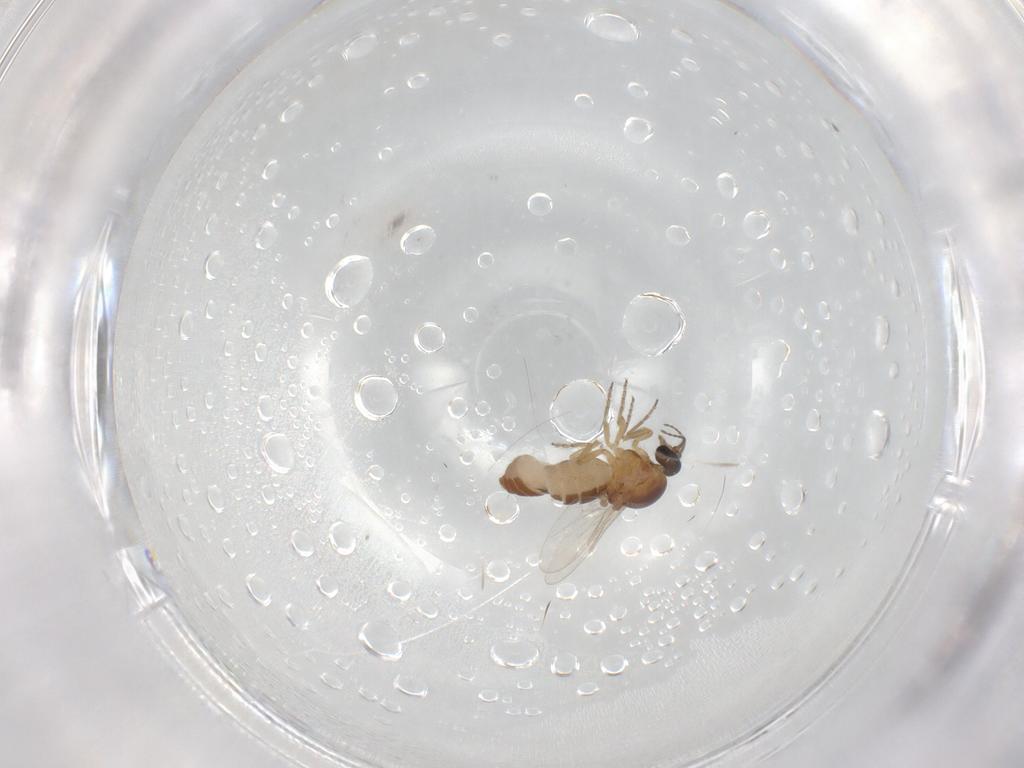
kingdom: Animalia
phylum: Arthropoda
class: Insecta
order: Diptera
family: Ceratopogonidae
